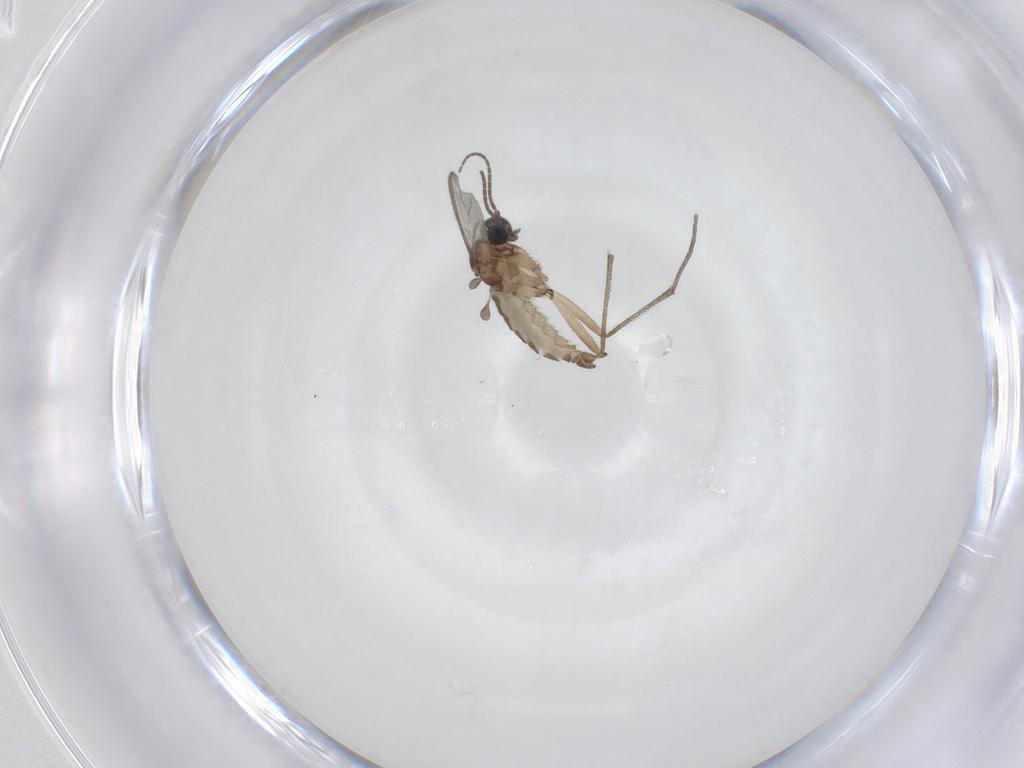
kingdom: Animalia
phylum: Arthropoda
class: Insecta
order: Diptera
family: Sciaridae
